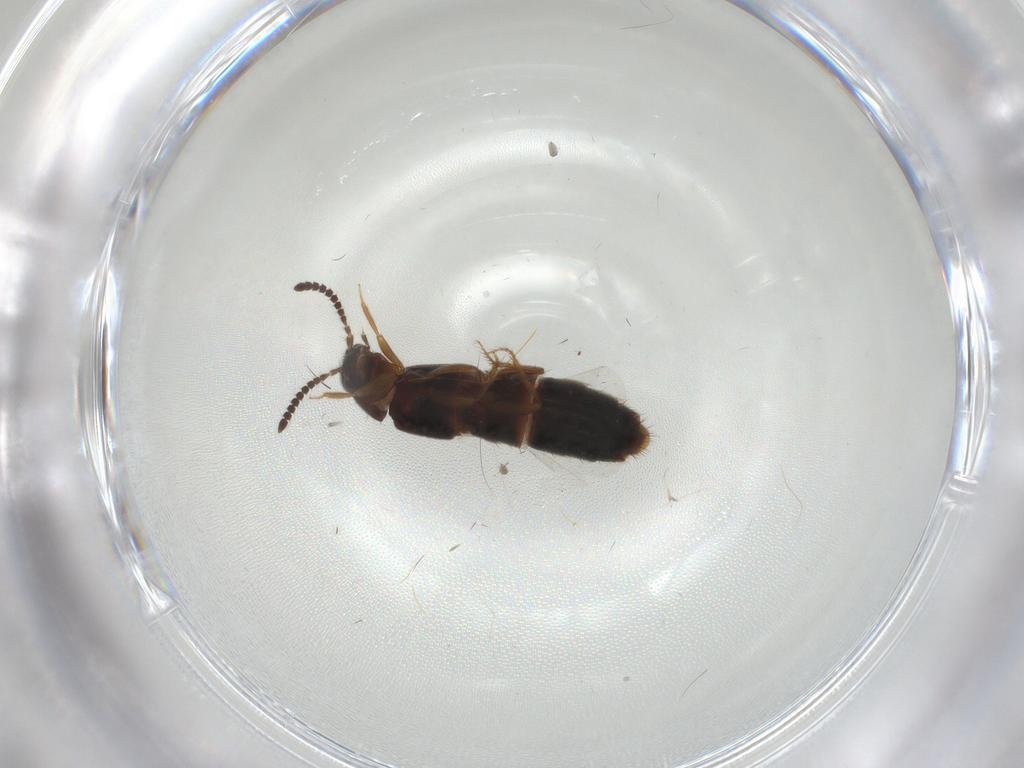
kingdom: Animalia
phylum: Arthropoda
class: Insecta
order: Coleoptera
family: Ptilodactylidae
